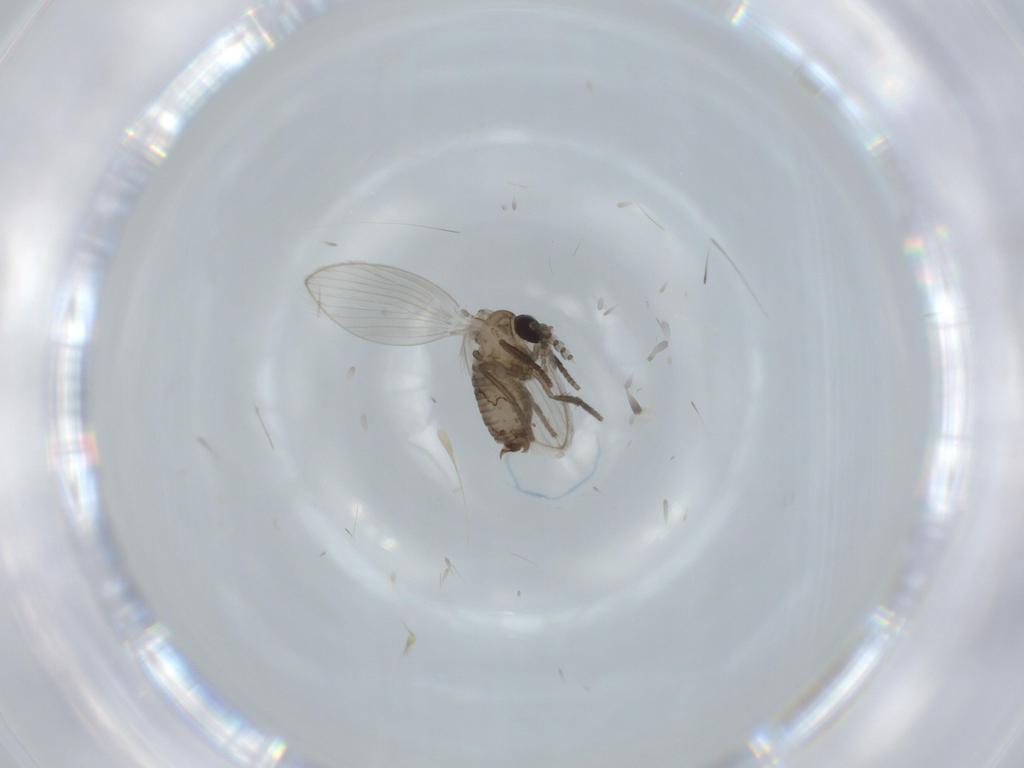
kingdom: Animalia
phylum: Arthropoda
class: Insecta
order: Diptera
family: Psychodidae
